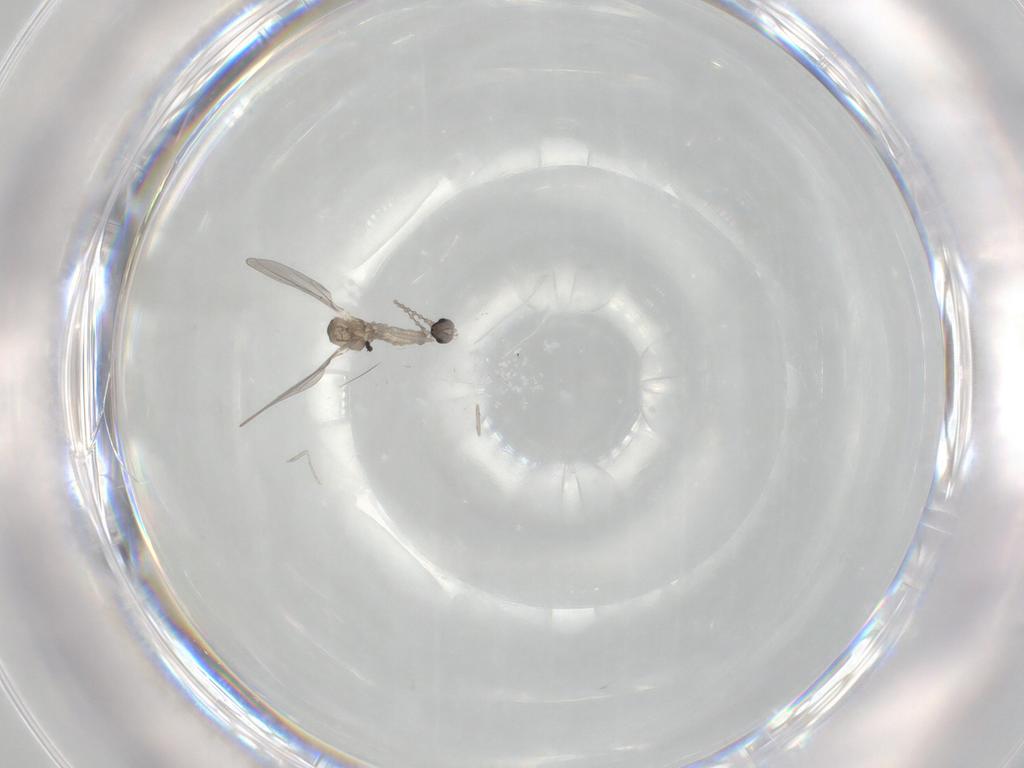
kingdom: Animalia
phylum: Arthropoda
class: Insecta
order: Diptera
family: Cecidomyiidae
